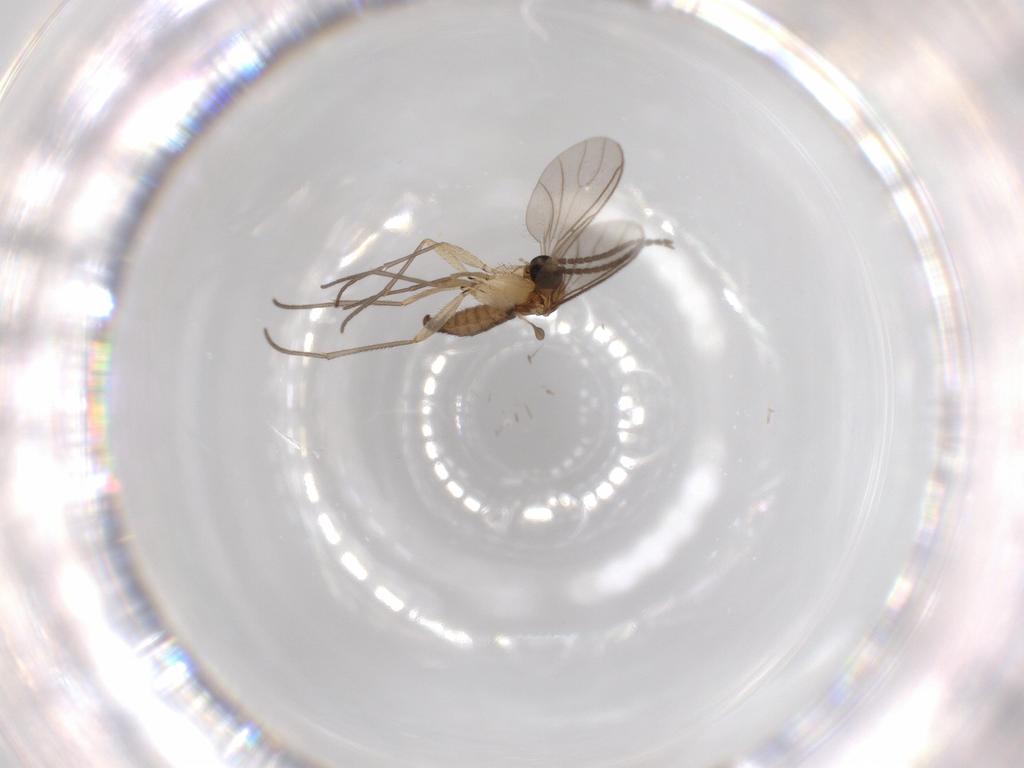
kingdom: Animalia
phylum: Arthropoda
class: Insecta
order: Diptera
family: Sciaridae
